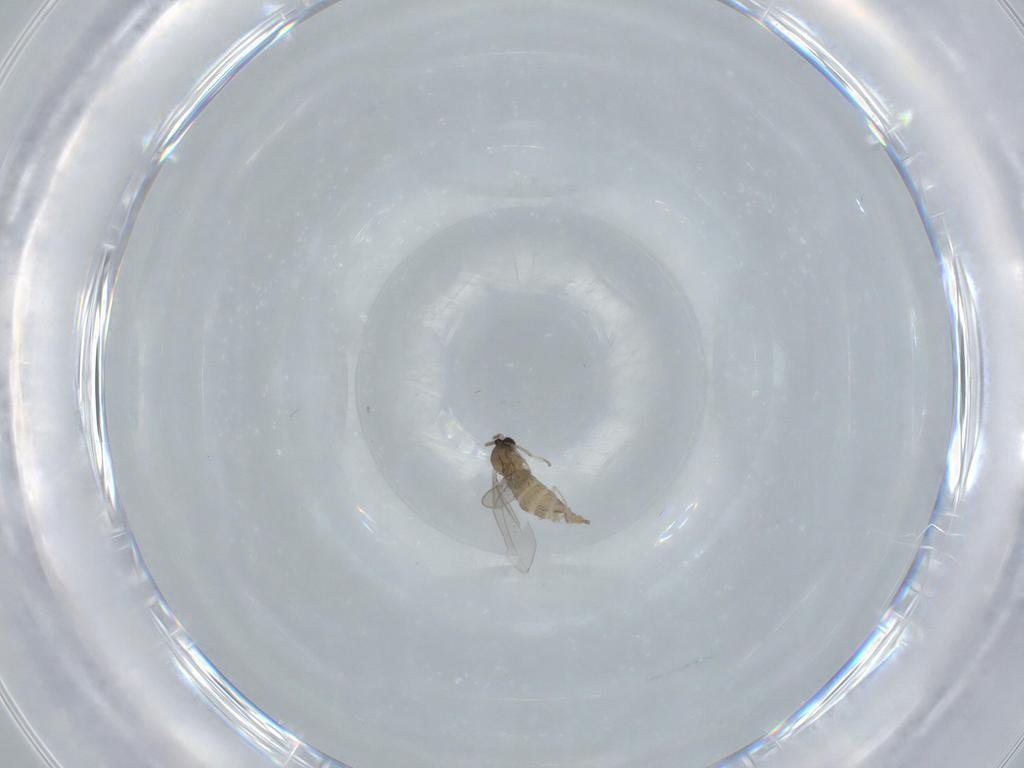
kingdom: Animalia
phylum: Arthropoda
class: Insecta
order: Diptera
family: Cecidomyiidae
